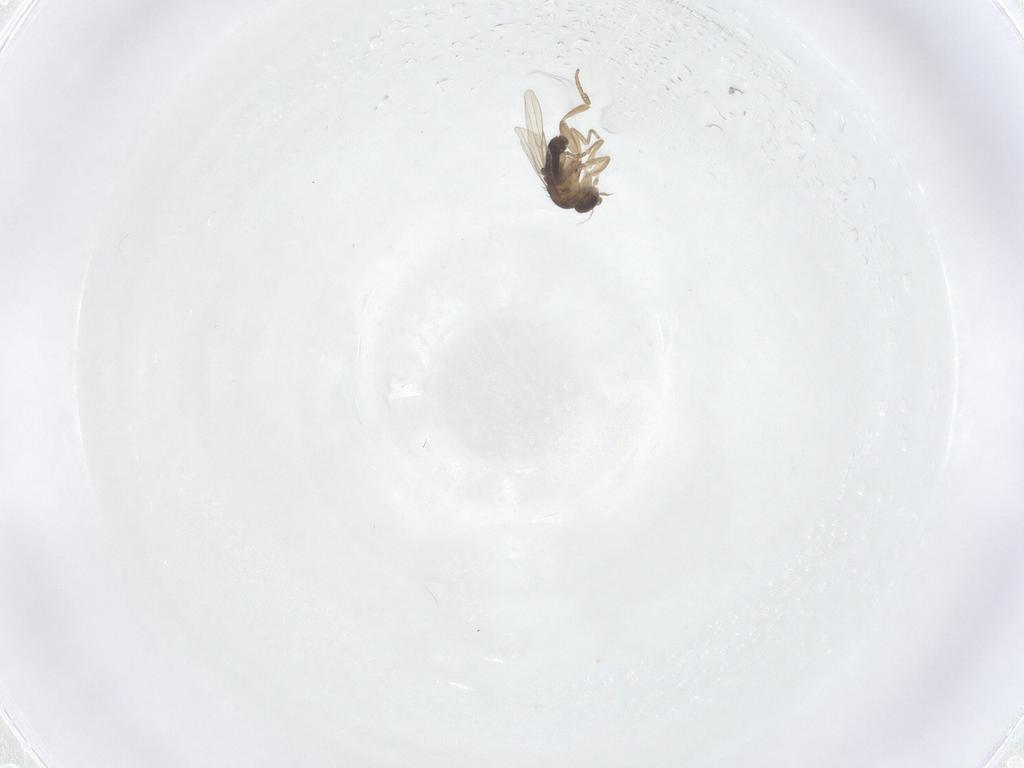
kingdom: Animalia
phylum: Arthropoda
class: Insecta
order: Diptera
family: Phoridae
